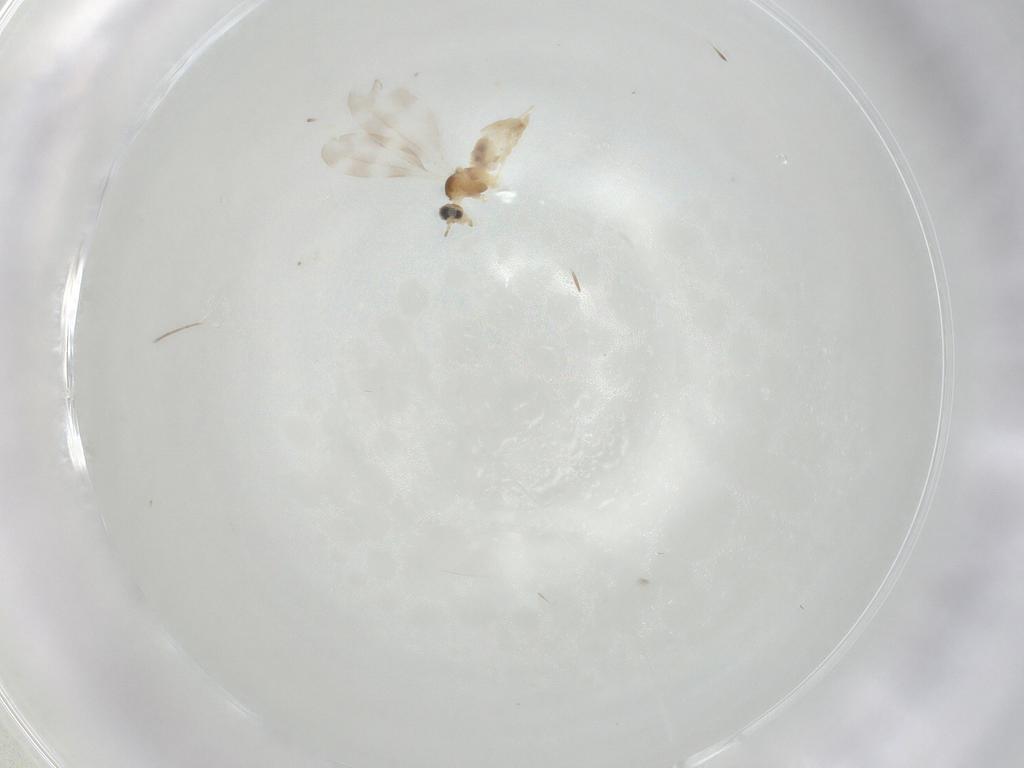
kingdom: Animalia
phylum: Arthropoda
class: Insecta
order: Diptera
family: Cecidomyiidae
